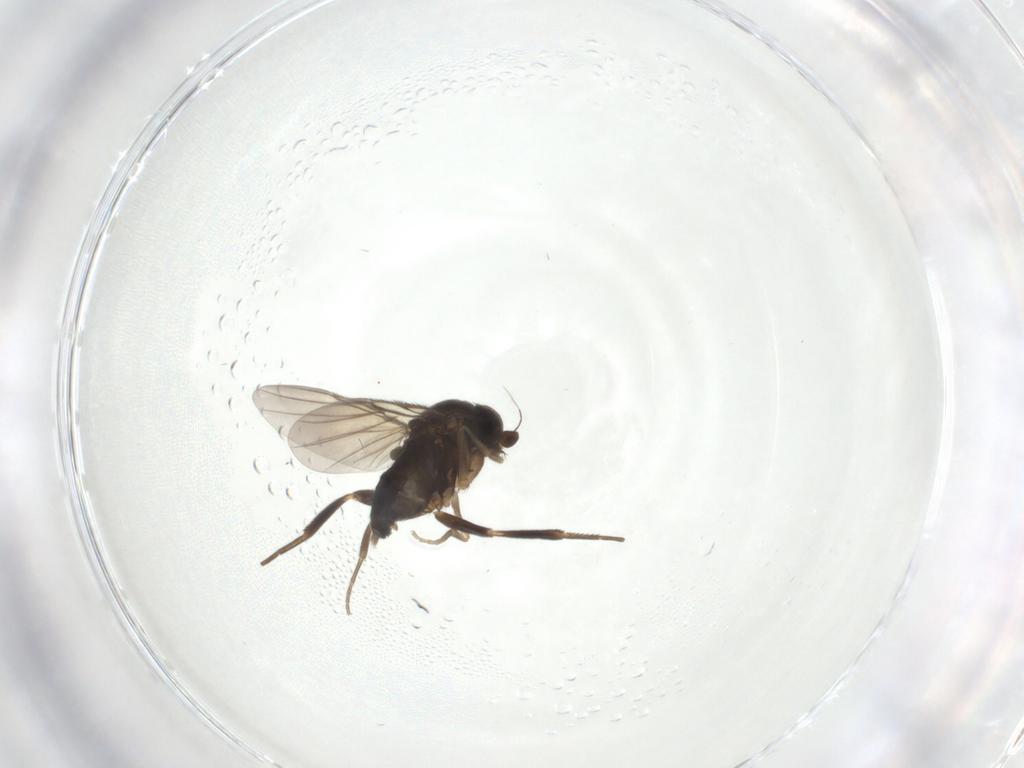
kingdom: Animalia
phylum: Arthropoda
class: Insecta
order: Diptera
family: Phoridae
